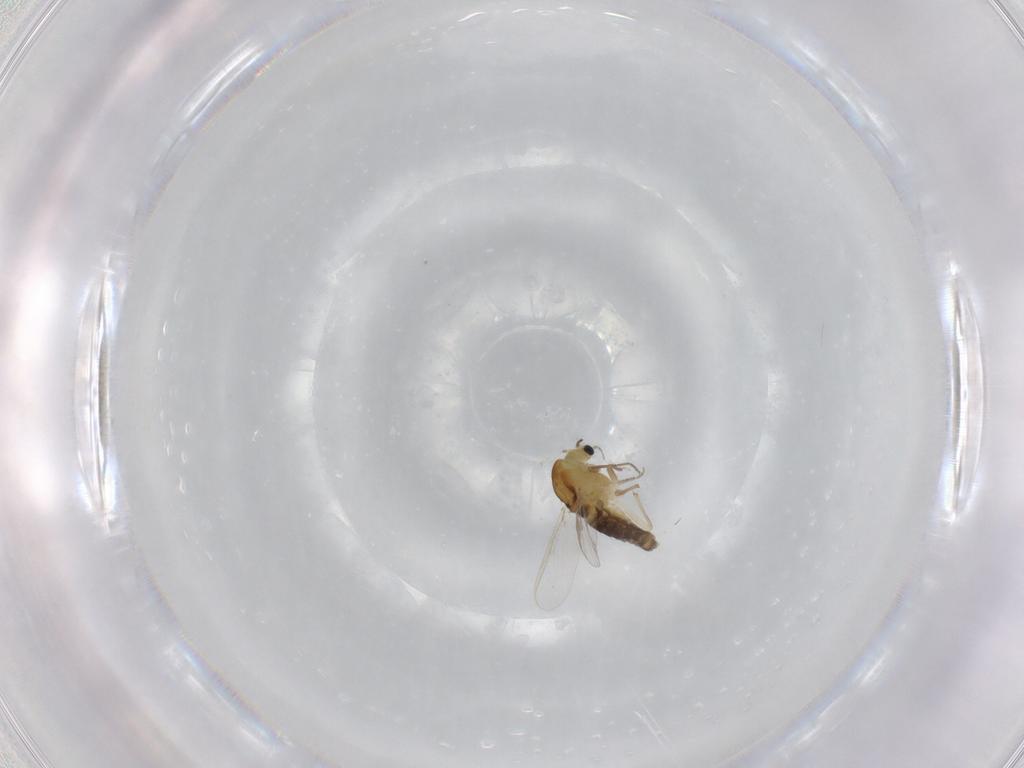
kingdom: Animalia
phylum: Arthropoda
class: Insecta
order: Diptera
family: Chironomidae
